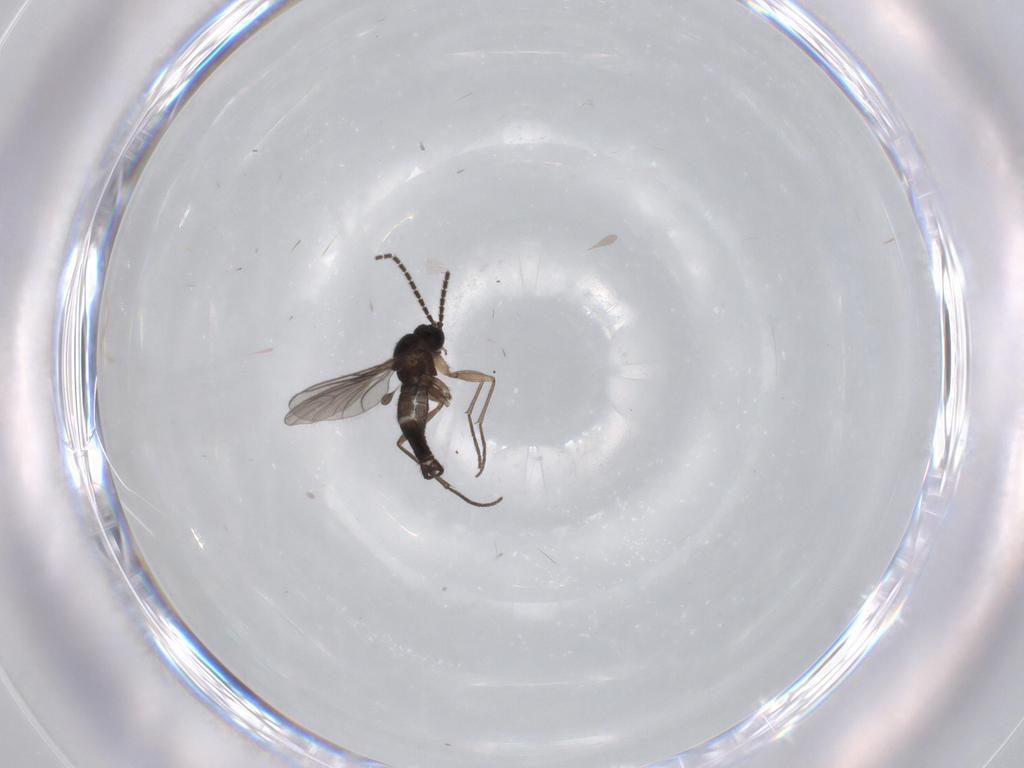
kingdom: Animalia
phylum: Arthropoda
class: Insecta
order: Diptera
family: Sciaridae
